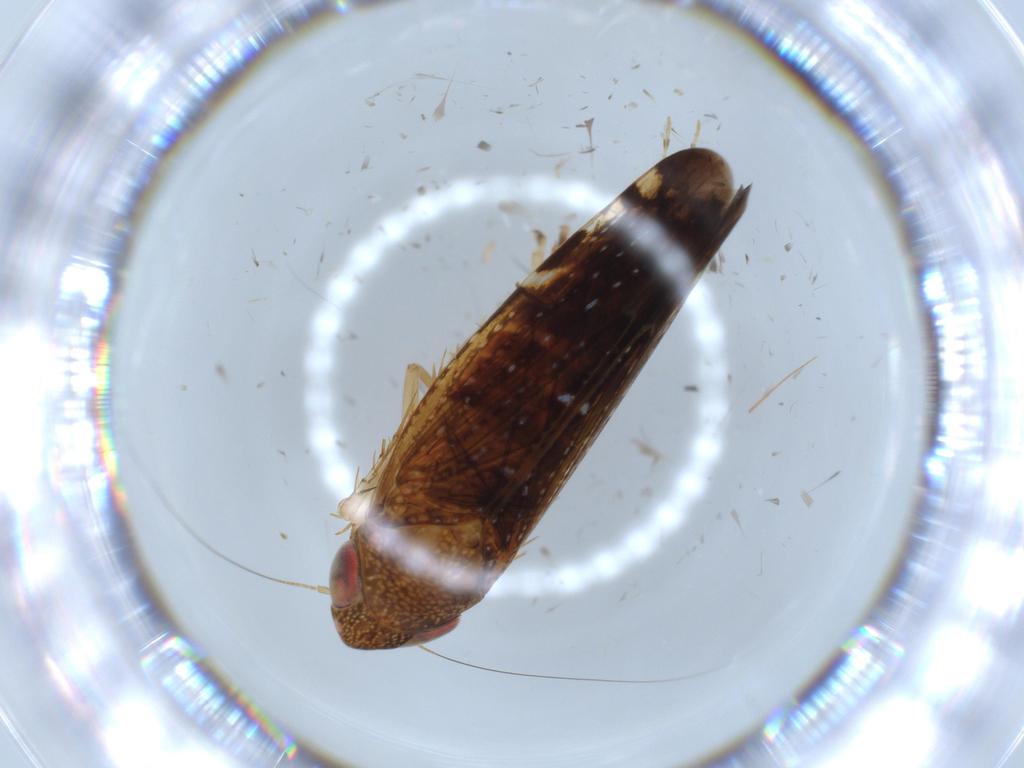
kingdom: Animalia
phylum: Arthropoda
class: Insecta
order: Hemiptera
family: Cicadellidae
